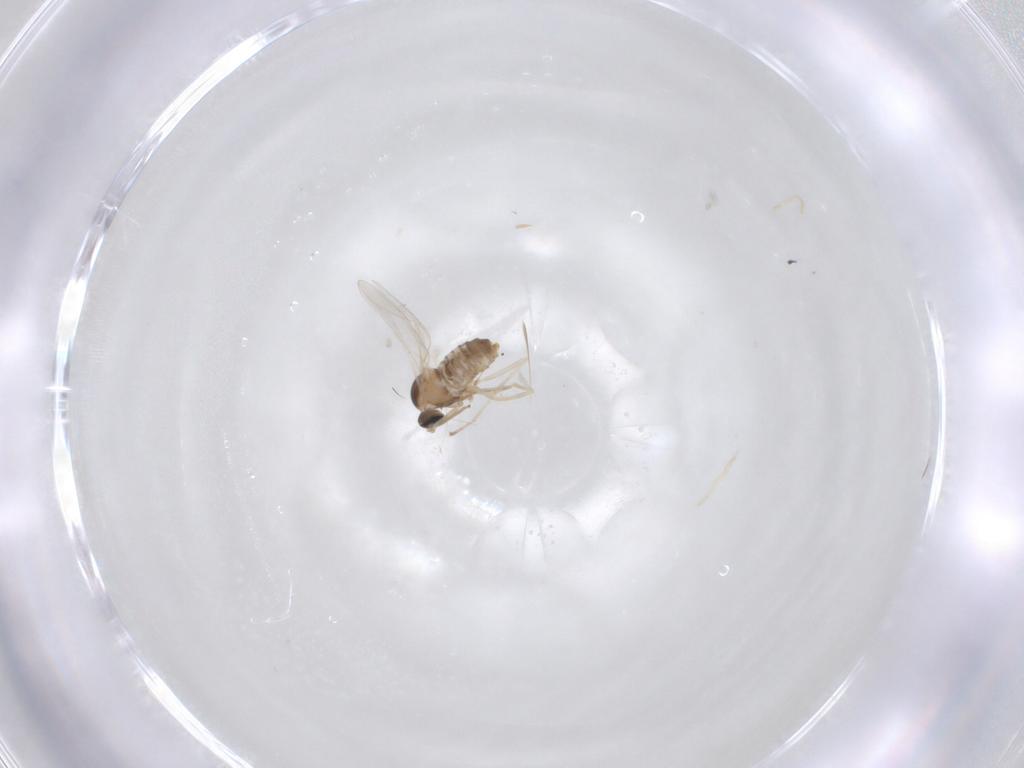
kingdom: Animalia
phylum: Arthropoda
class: Insecta
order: Diptera
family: Cecidomyiidae
